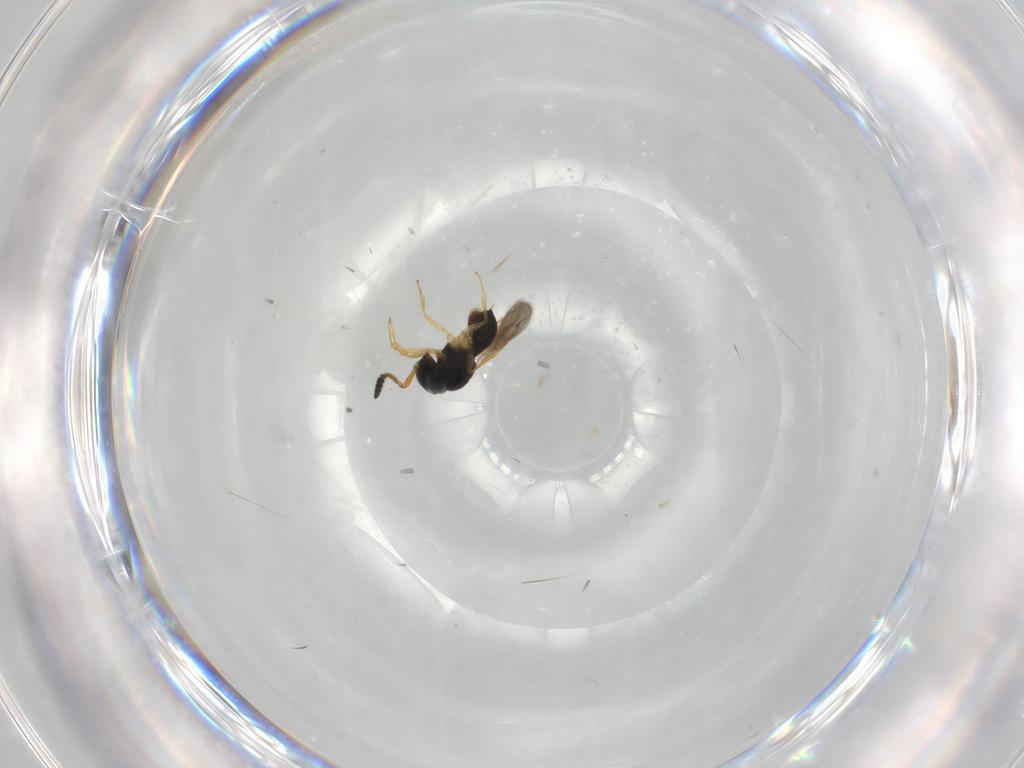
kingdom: Animalia
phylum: Arthropoda
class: Insecta
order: Hymenoptera
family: Scelionidae
